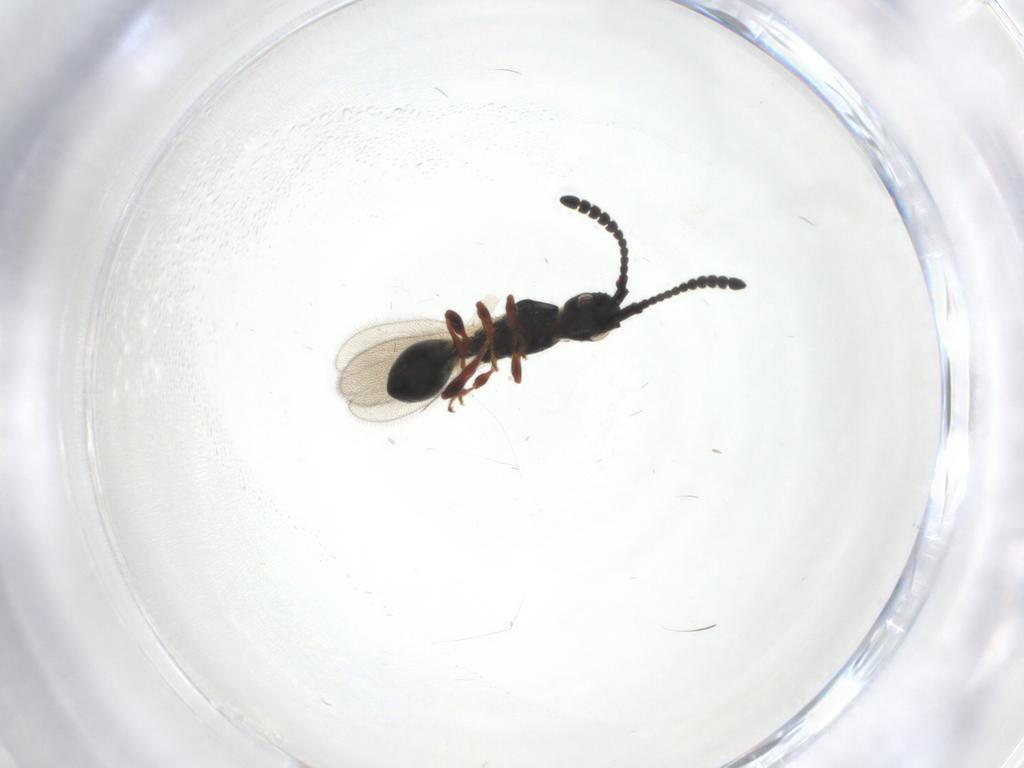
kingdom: Animalia
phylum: Arthropoda
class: Insecta
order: Hymenoptera
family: Diapriidae
